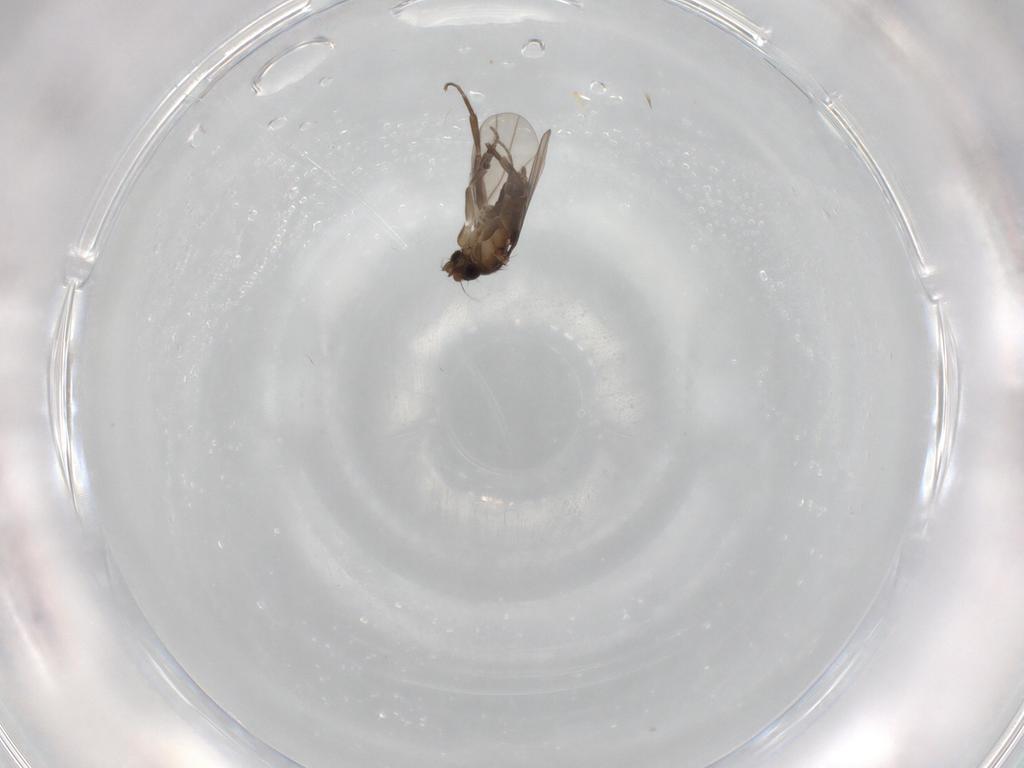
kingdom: Animalia
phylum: Arthropoda
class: Insecta
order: Diptera
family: Phoridae
